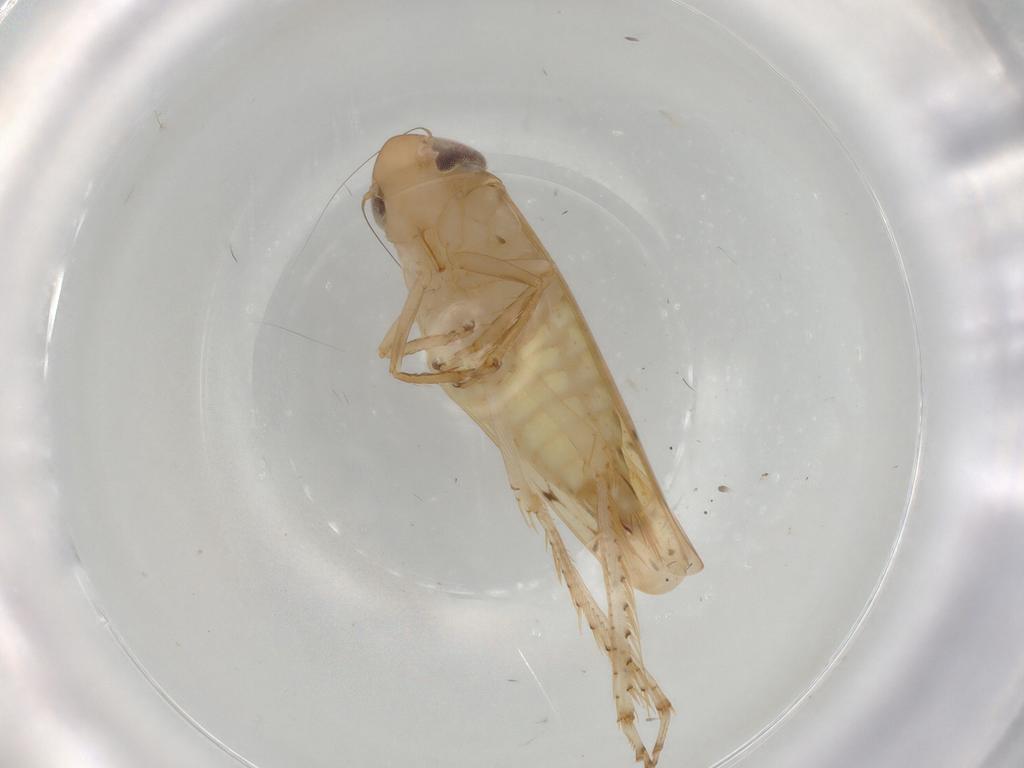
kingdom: Animalia
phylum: Arthropoda
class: Insecta
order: Hemiptera
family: Cicadellidae
